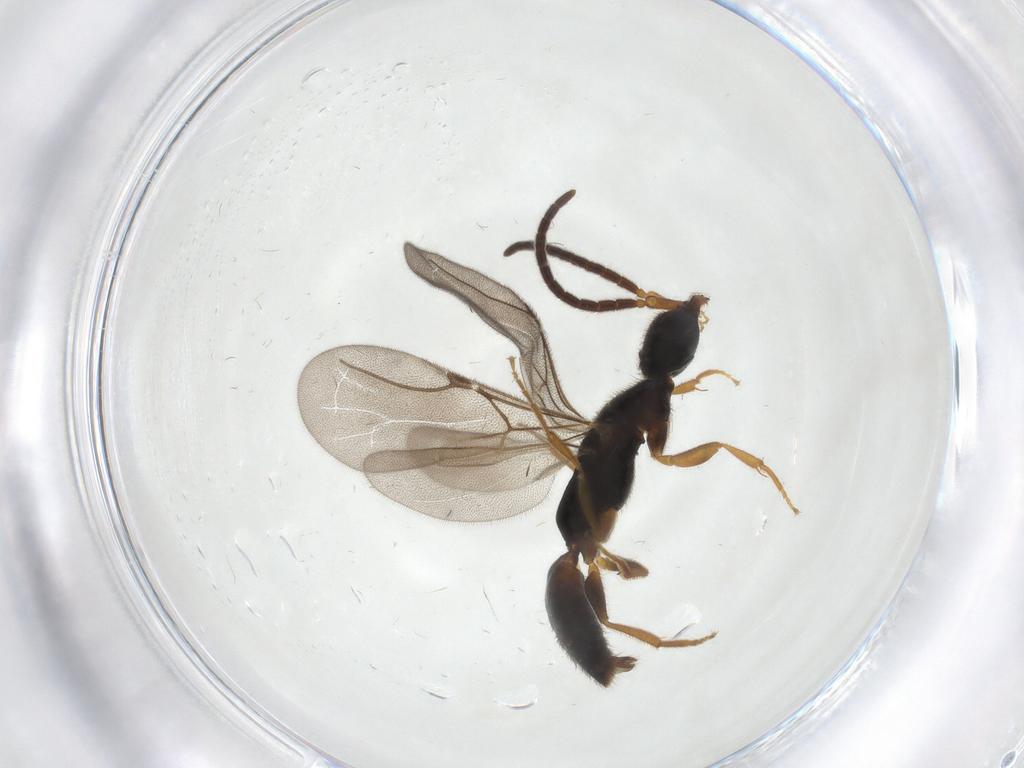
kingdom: Animalia
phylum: Arthropoda
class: Insecta
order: Hymenoptera
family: Bethylidae
